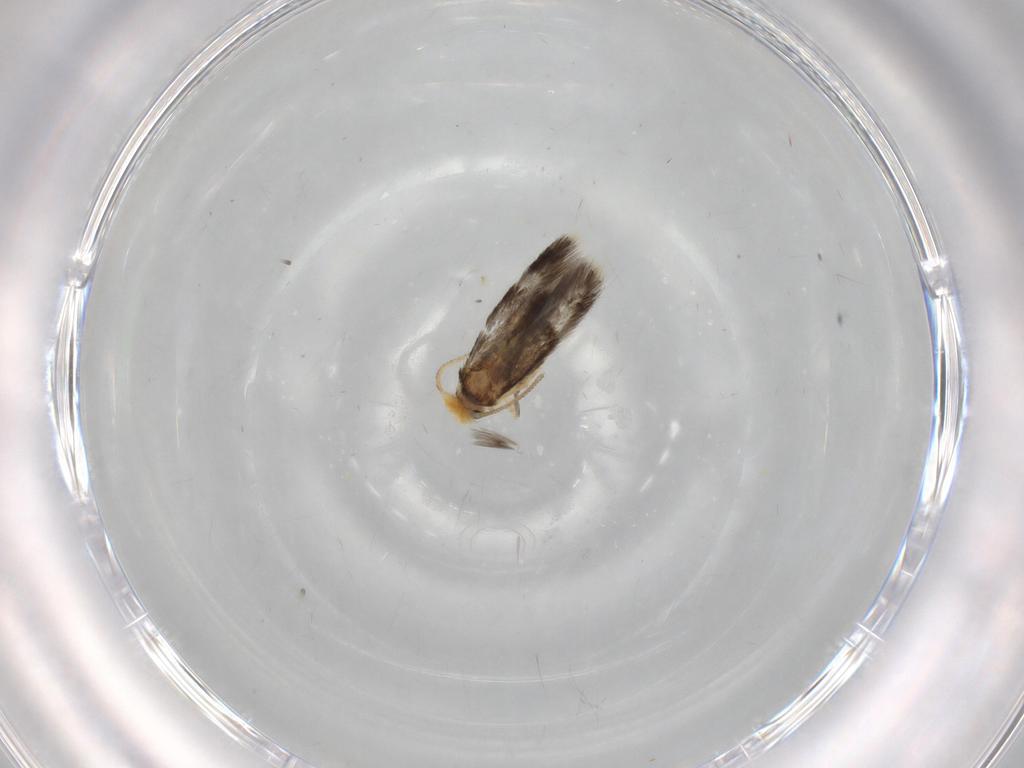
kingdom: Animalia
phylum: Arthropoda
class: Insecta
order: Lepidoptera
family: Nepticulidae
